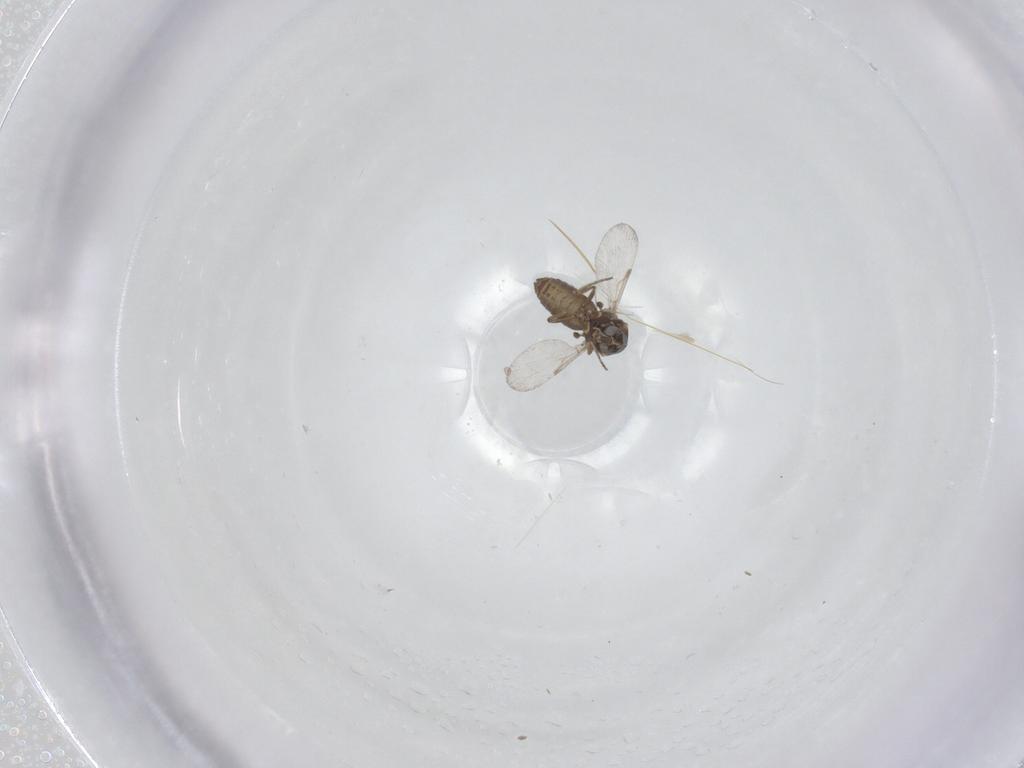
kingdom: Animalia
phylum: Arthropoda
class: Insecta
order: Diptera
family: Ceratopogonidae
